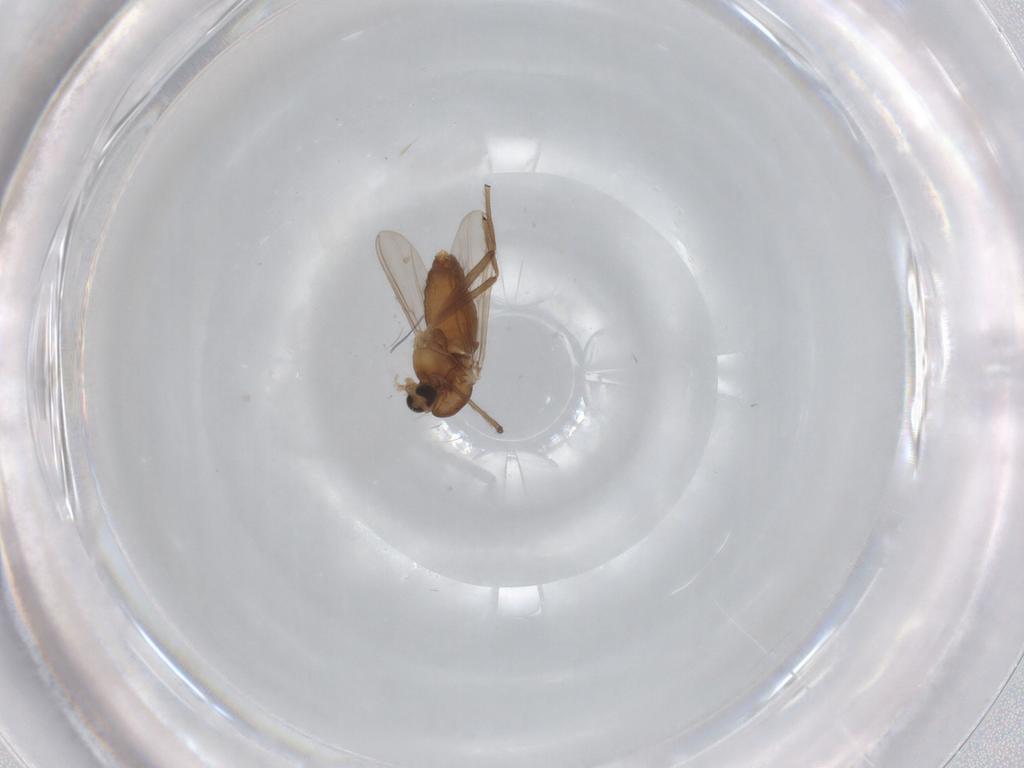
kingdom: Animalia
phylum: Arthropoda
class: Insecta
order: Diptera
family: Chironomidae
